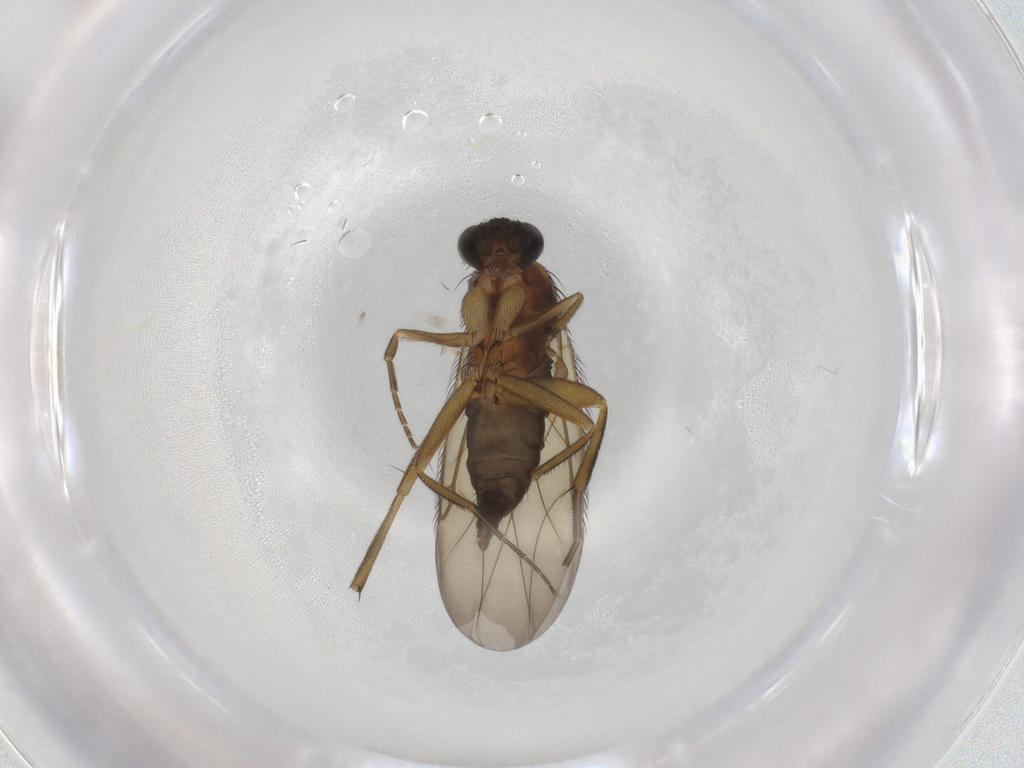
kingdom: Animalia
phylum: Arthropoda
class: Insecta
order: Diptera
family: Phoridae
